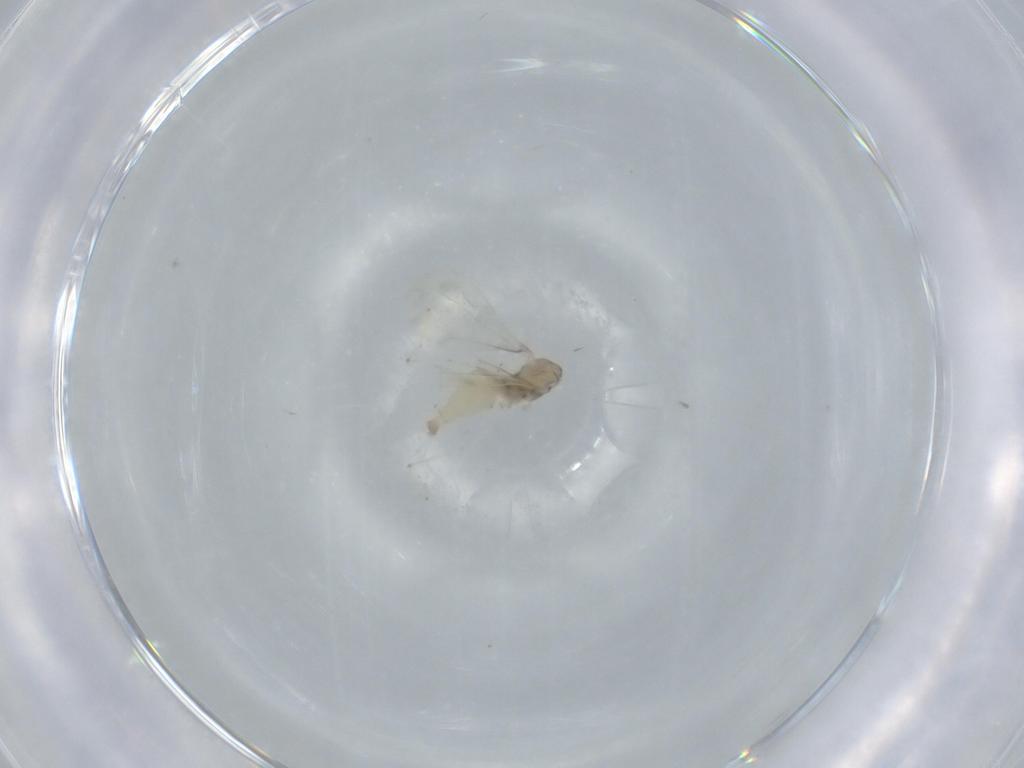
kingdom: Animalia
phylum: Arthropoda
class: Insecta
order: Diptera
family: Cecidomyiidae
